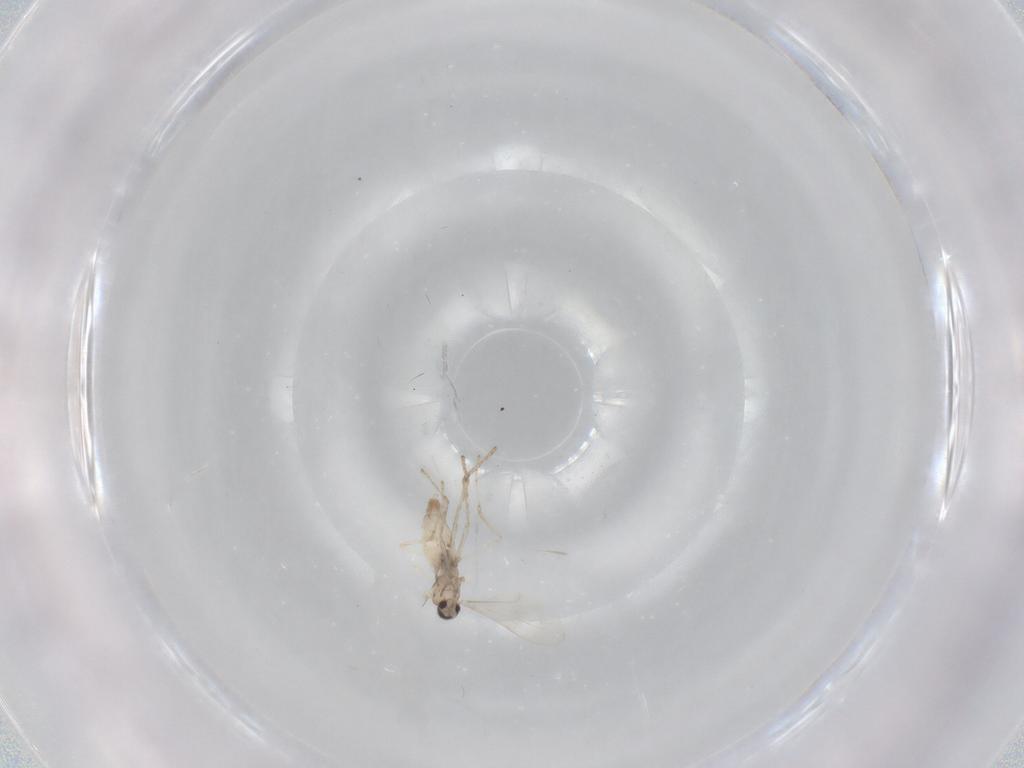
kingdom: Animalia
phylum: Arthropoda
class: Insecta
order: Diptera
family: Cecidomyiidae
